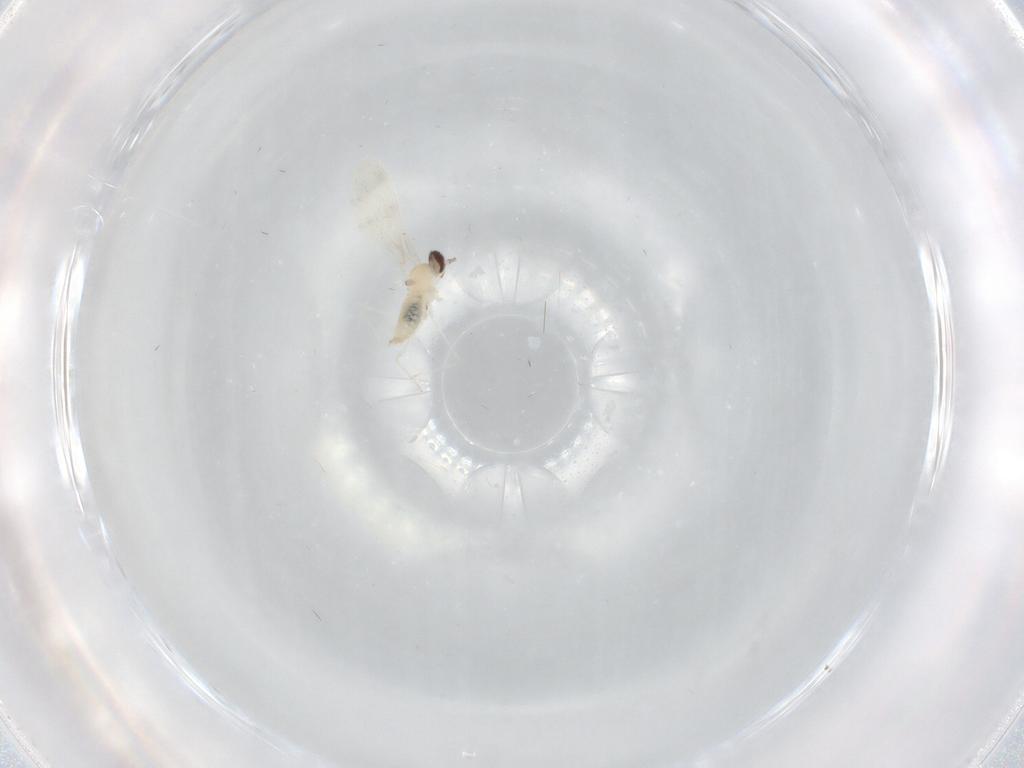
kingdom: Animalia
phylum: Arthropoda
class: Insecta
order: Diptera
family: Cecidomyiidae
